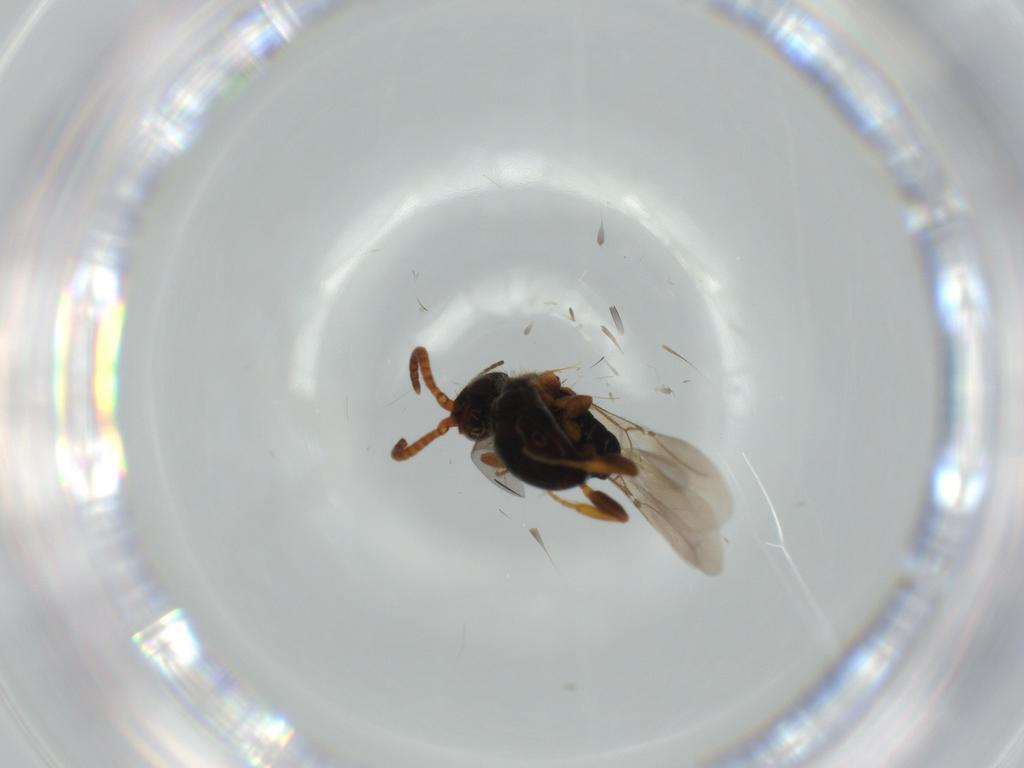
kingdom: Animalia
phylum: Arthropoda
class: Insecta
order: Hymenoptera
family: Bethylidae
